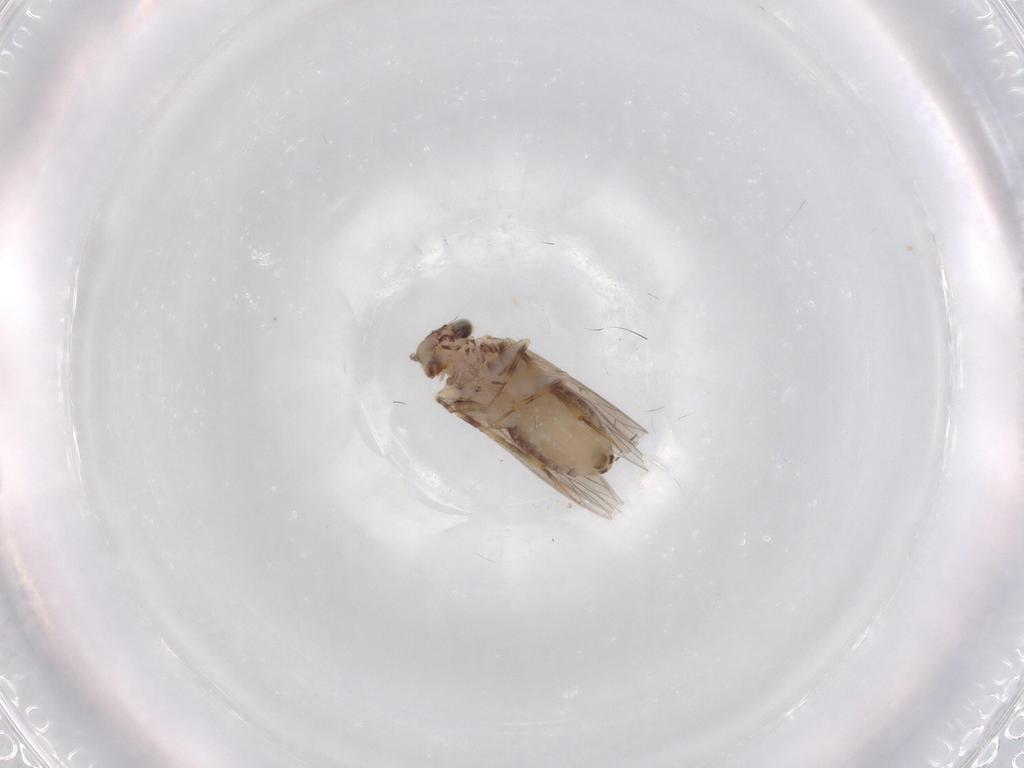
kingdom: Animalia
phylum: Arthropoda
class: Insecta
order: Psocodea
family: Lepidopsocidae
